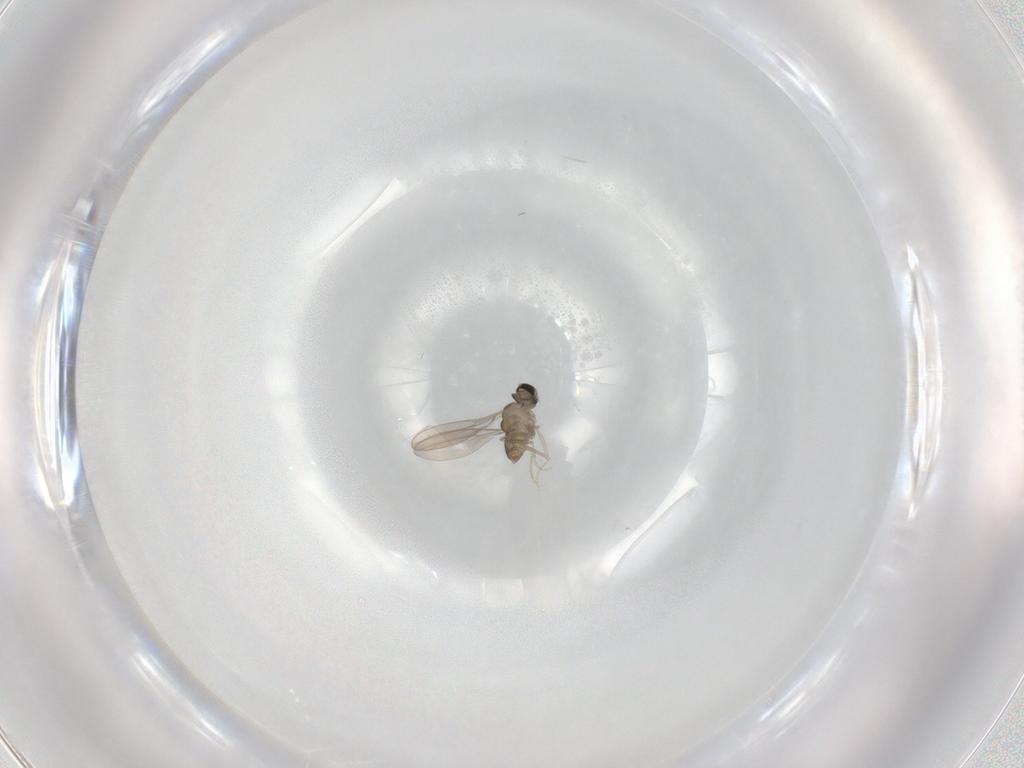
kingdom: Animalia
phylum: Arthropoda
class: Insecta
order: Diptera
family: Cecidomyiidae
